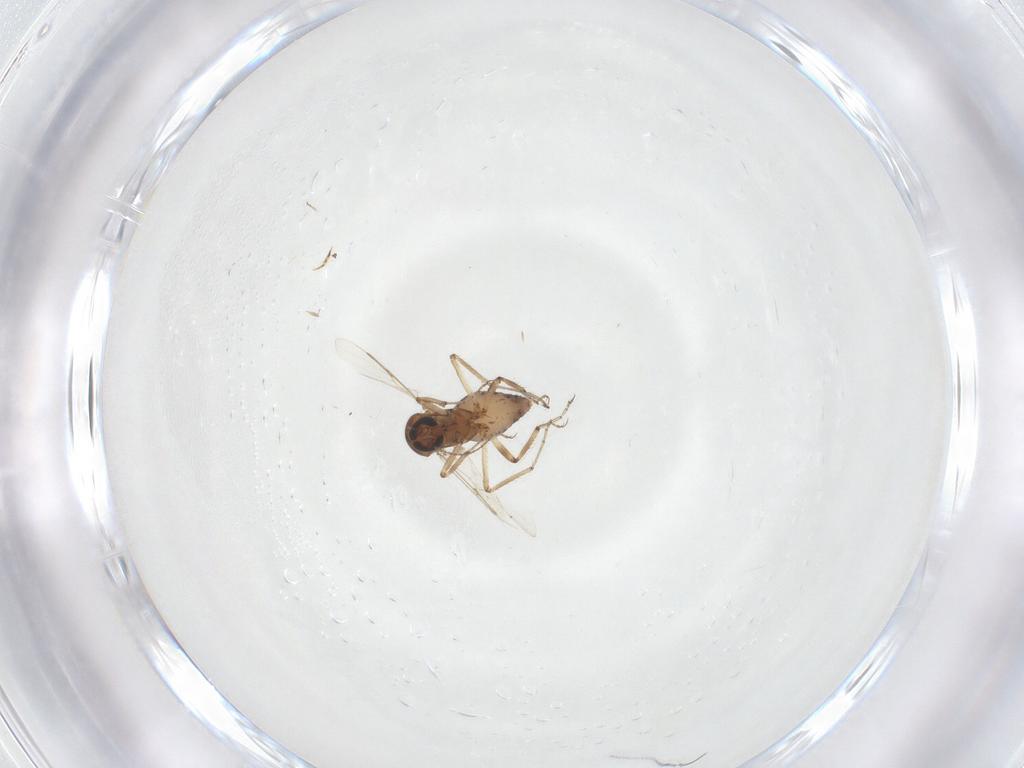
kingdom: Animalia
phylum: Arthropoda
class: Insecta
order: Diptera
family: Ceratopogonidae
